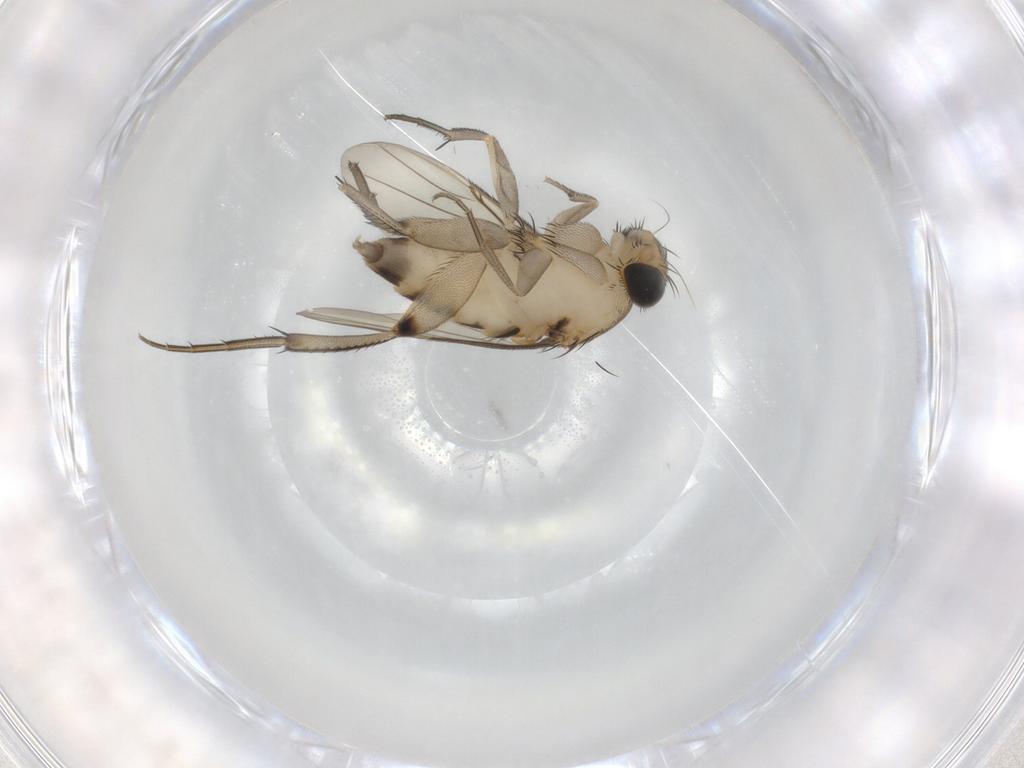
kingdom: Animalia
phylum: Arthropoda
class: Insecta
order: Diptera
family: Phoridae
